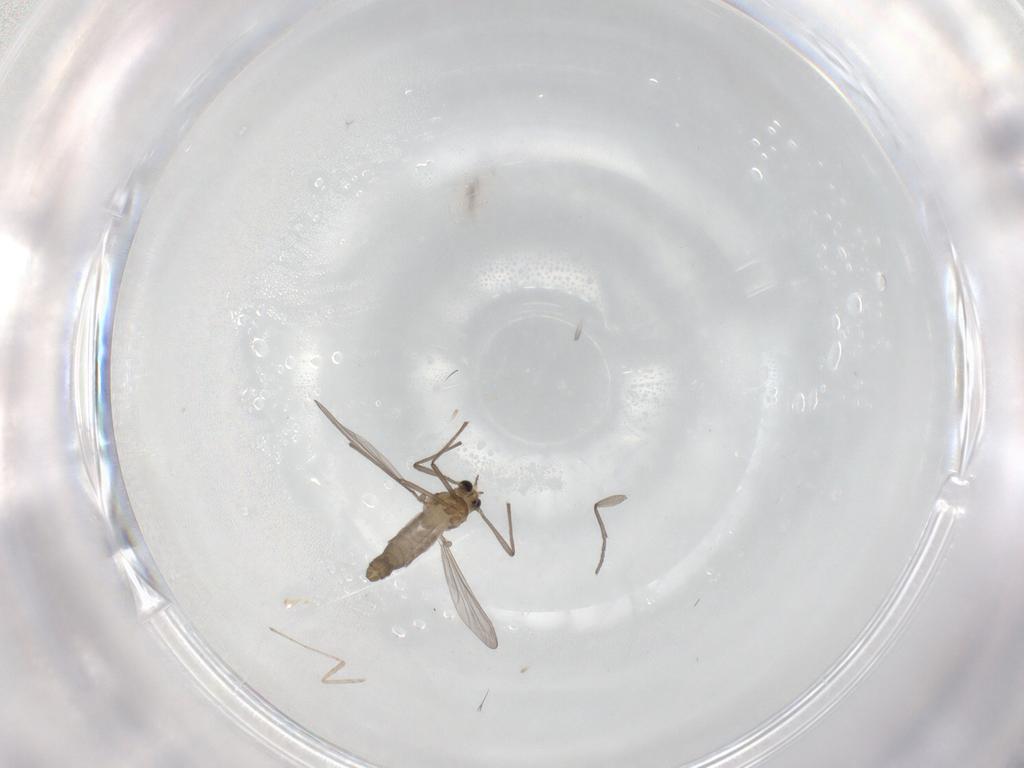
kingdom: Animalia
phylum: Arthropoda
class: Insecta
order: Diptera
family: Cecidomyiidae
